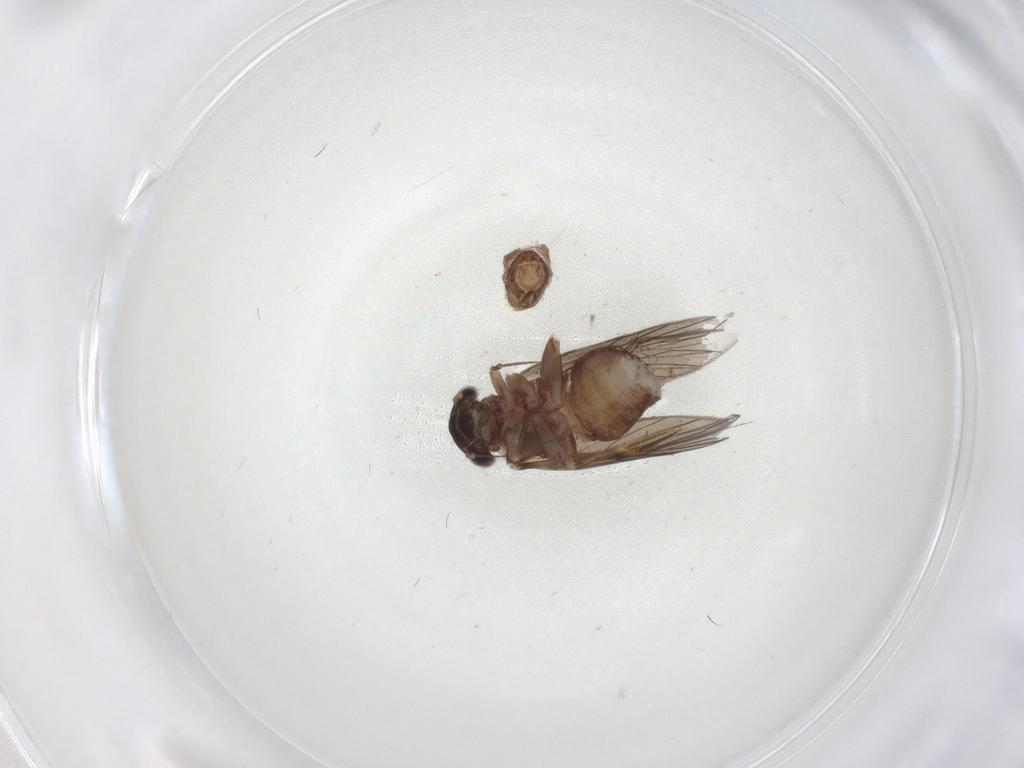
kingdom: Animalia
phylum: Arthropoda
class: Insecta
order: Psocodea
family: Lepidopsocidae
